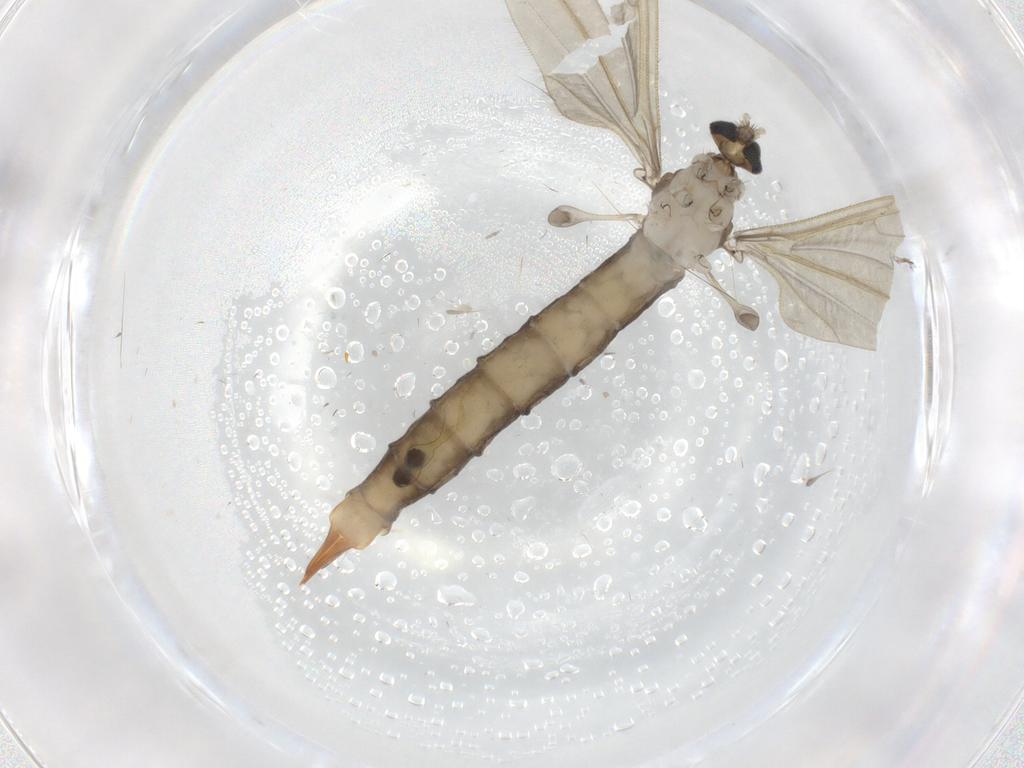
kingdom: Animalia
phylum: Arthropoda
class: Insecta
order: Diptera
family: Limoniidae
